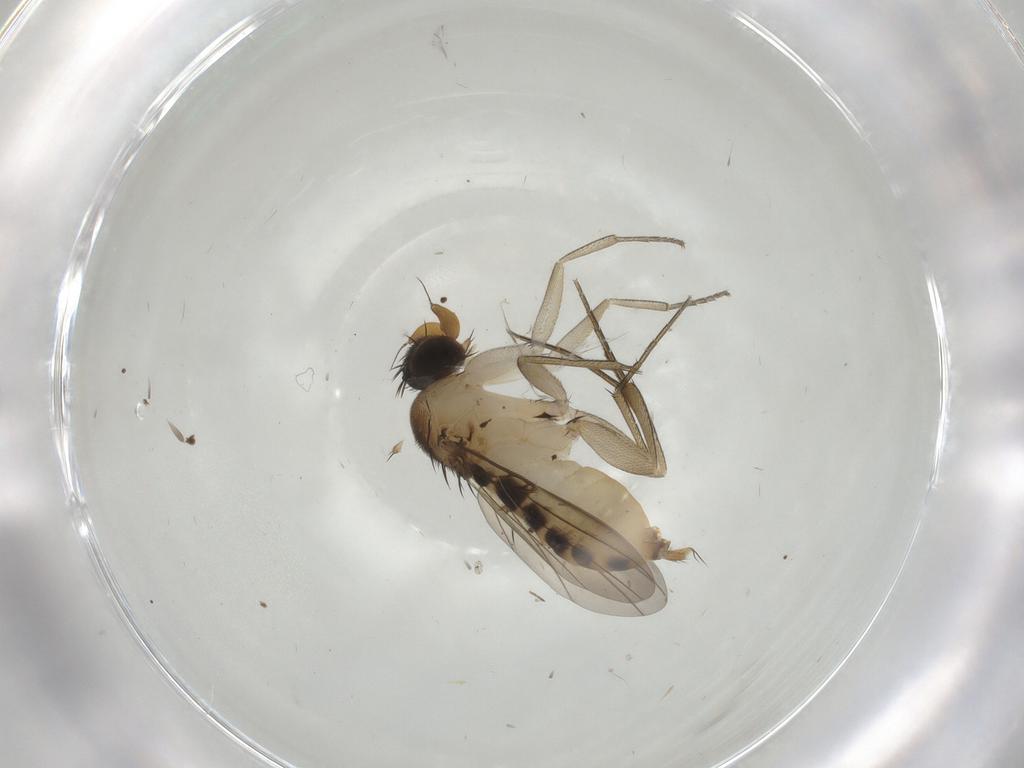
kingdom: Animalia
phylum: Arthropoda
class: Insecta
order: Diptera
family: Phoridae
